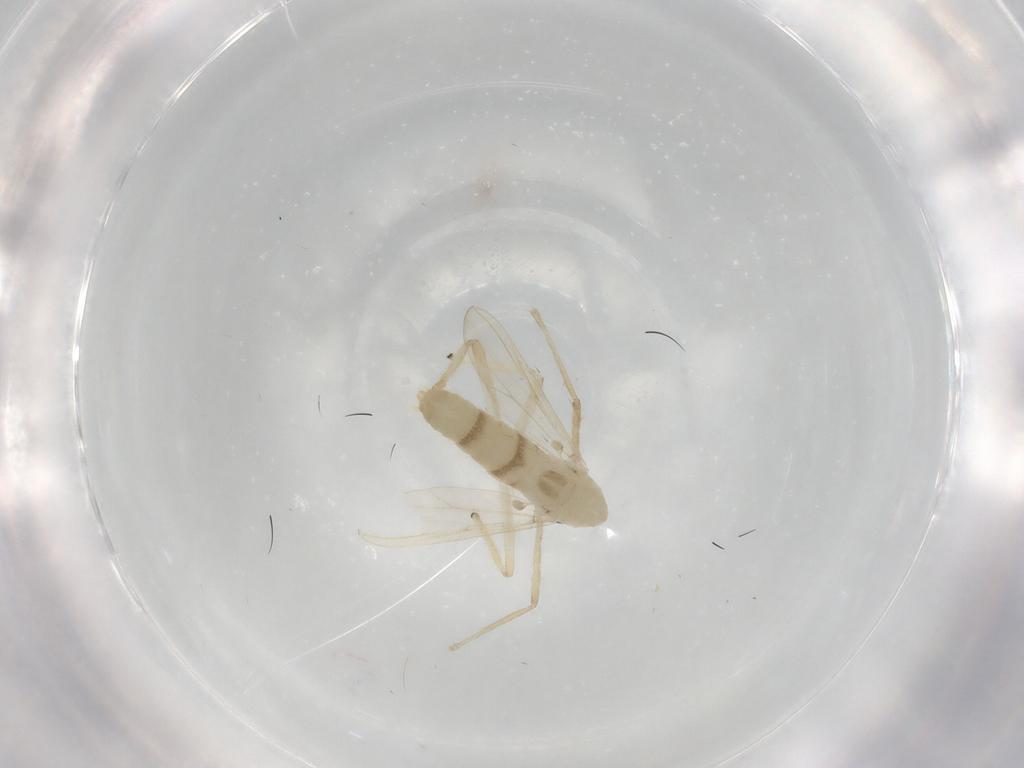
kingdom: Animalia
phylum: Arthropoda
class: Insecta
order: Diptera
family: Chironomidae
